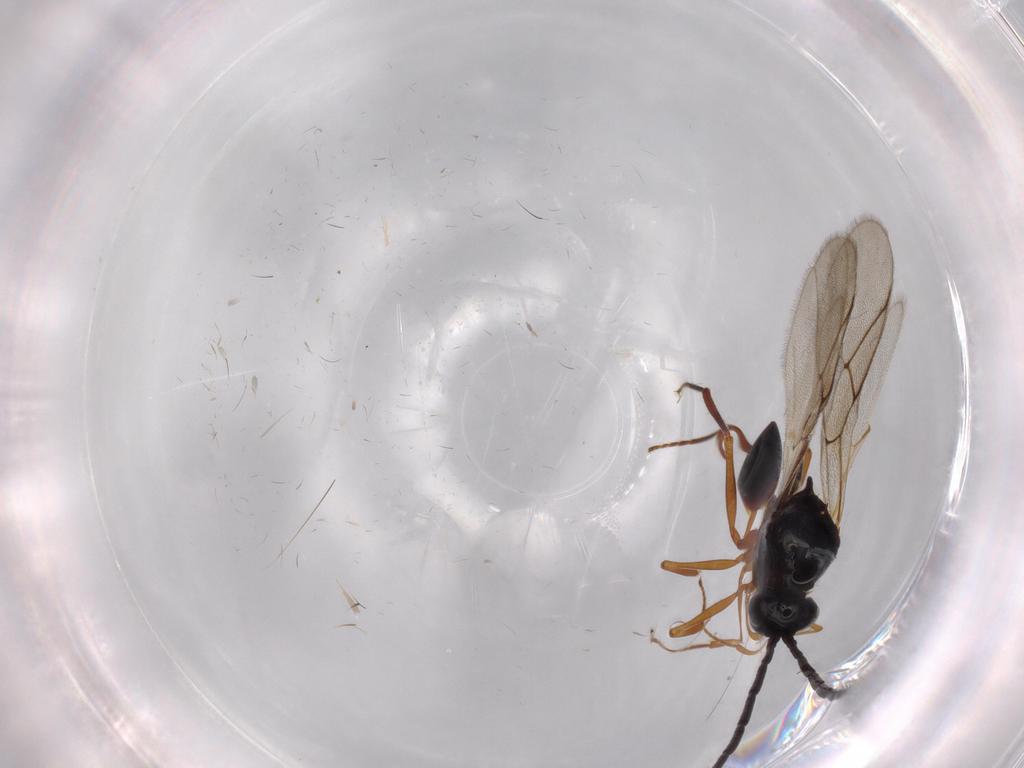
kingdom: Animalia
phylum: Arthropoda
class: Insecta
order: Hymenoptera
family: Figitidae
